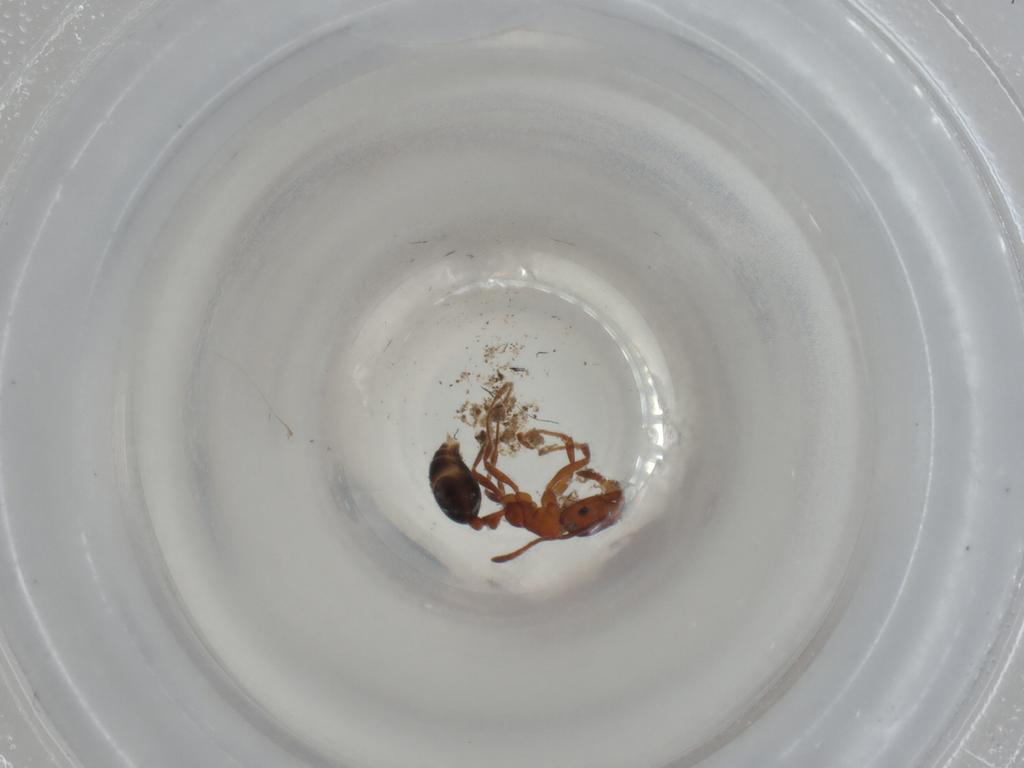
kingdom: Animalia
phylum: Arthropoda
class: Insecta
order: Hymenoptera
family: Formicidae
